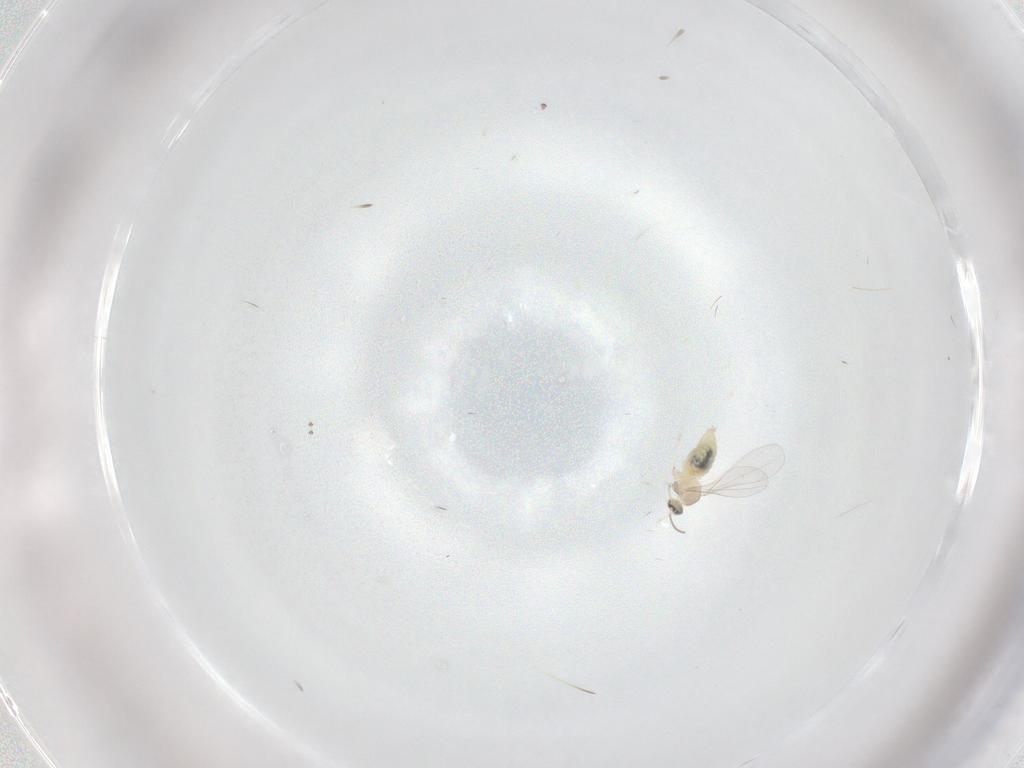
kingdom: Animalia
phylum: Arthropoda
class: Insecta
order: Diptera
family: Cecidomyiidae
